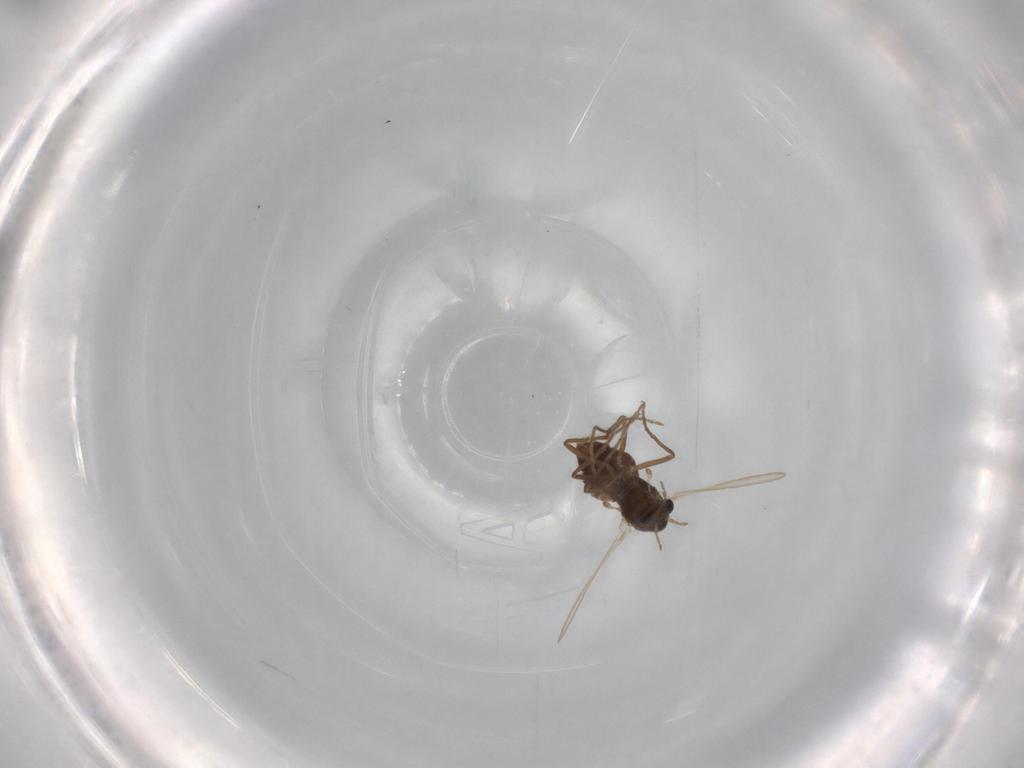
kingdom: Animalia
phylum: Arthropoda
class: Insecta
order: Diptera
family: Chironomidae
